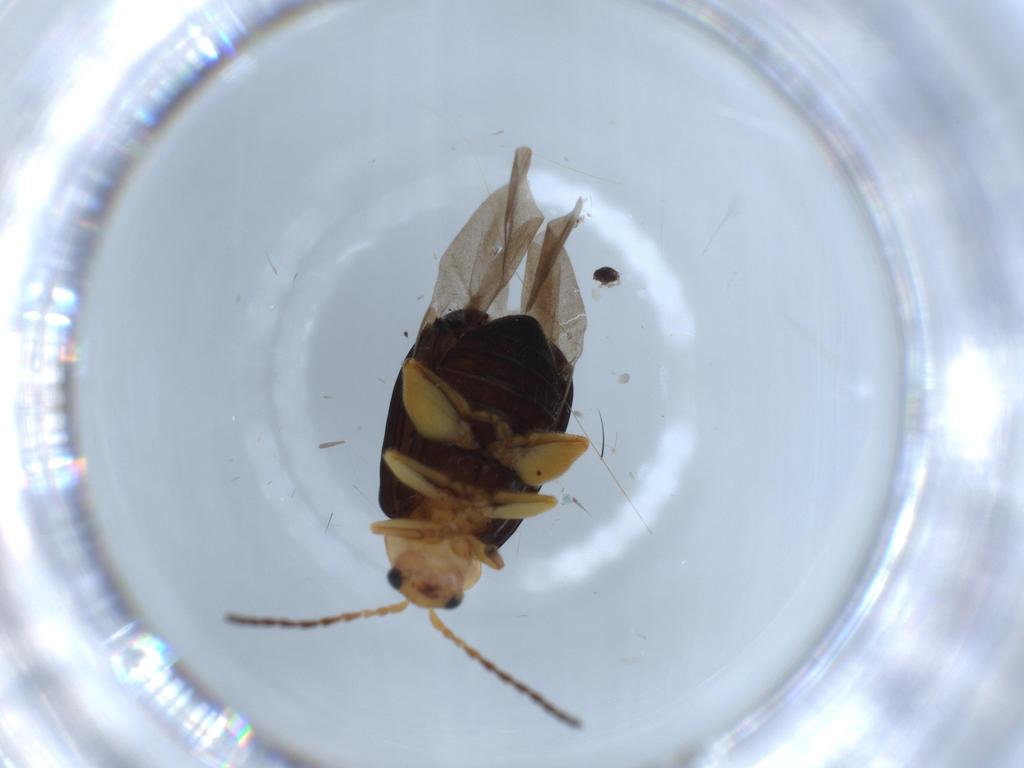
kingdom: Animalia
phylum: Arthropoda
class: Insecta
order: Coleoptera
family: Chrysomelidae
